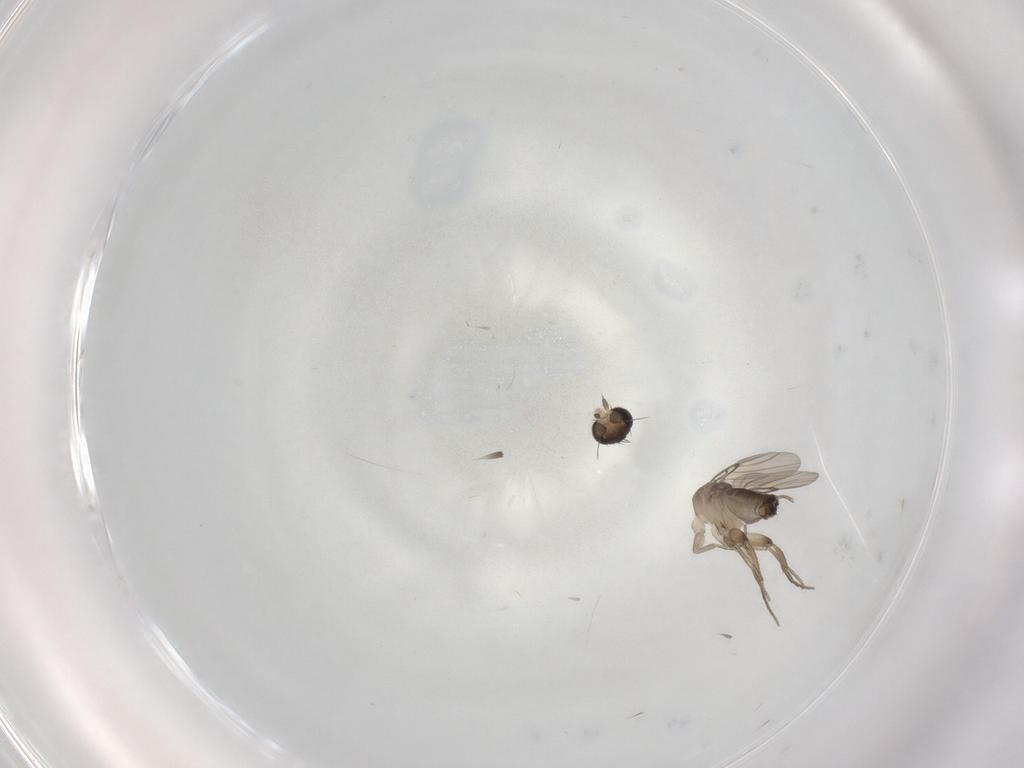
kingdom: Animalia
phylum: Arthropoda
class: Insecta
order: Diptera
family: Phoridae
